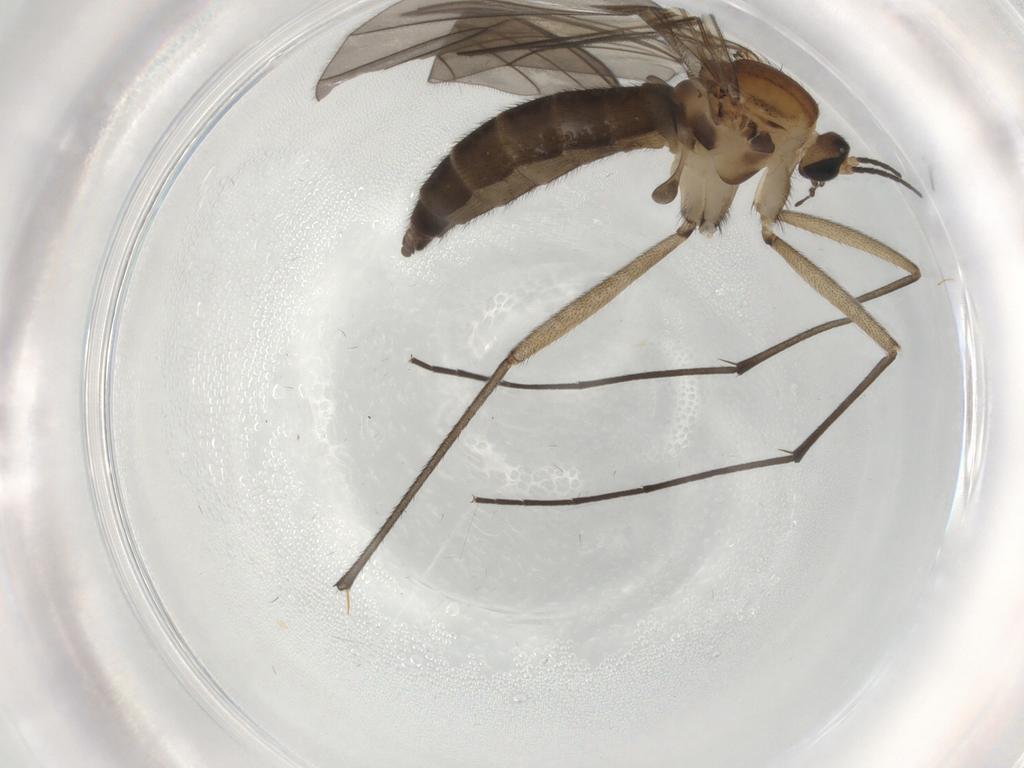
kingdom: Animalia
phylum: Arthropoda
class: Insecta
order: Diptera
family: Sciaridae
